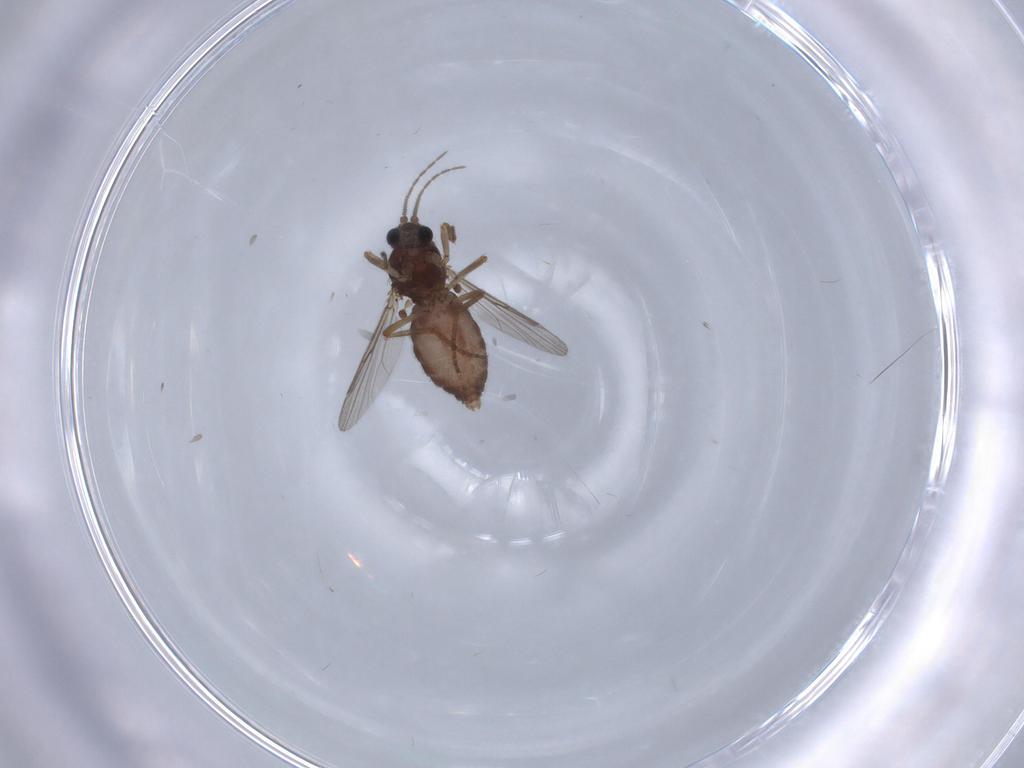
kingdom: Animalia
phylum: Arthropoda
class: Insecta
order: Diptera
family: Ceratopogonidae
